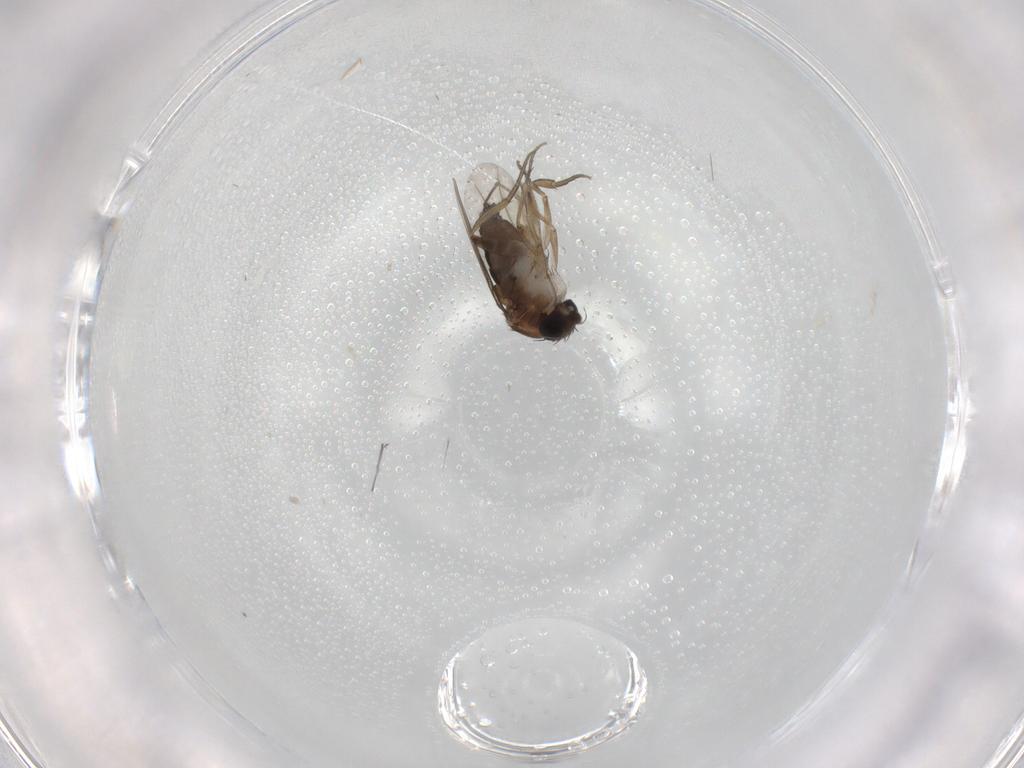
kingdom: Animalia
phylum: Arthropoda
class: Insecta
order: Diptera
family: Phoridae
